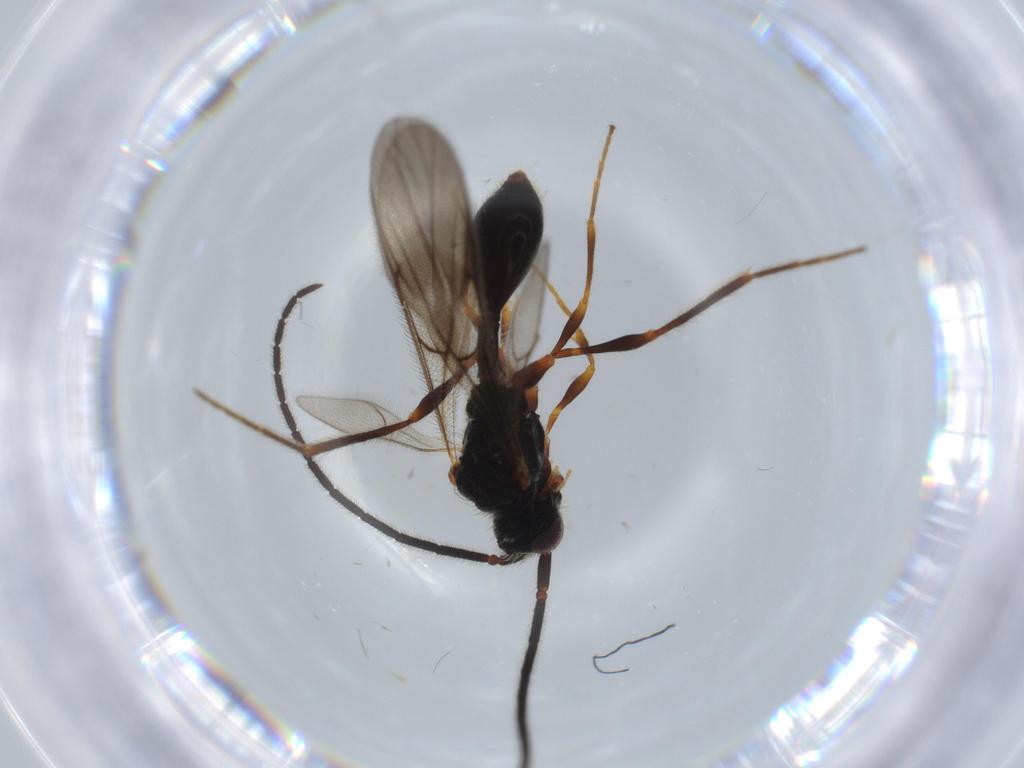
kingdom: Animalia
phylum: Arthropoda
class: Insecta
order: Hymenoptera
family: Diapriidae
